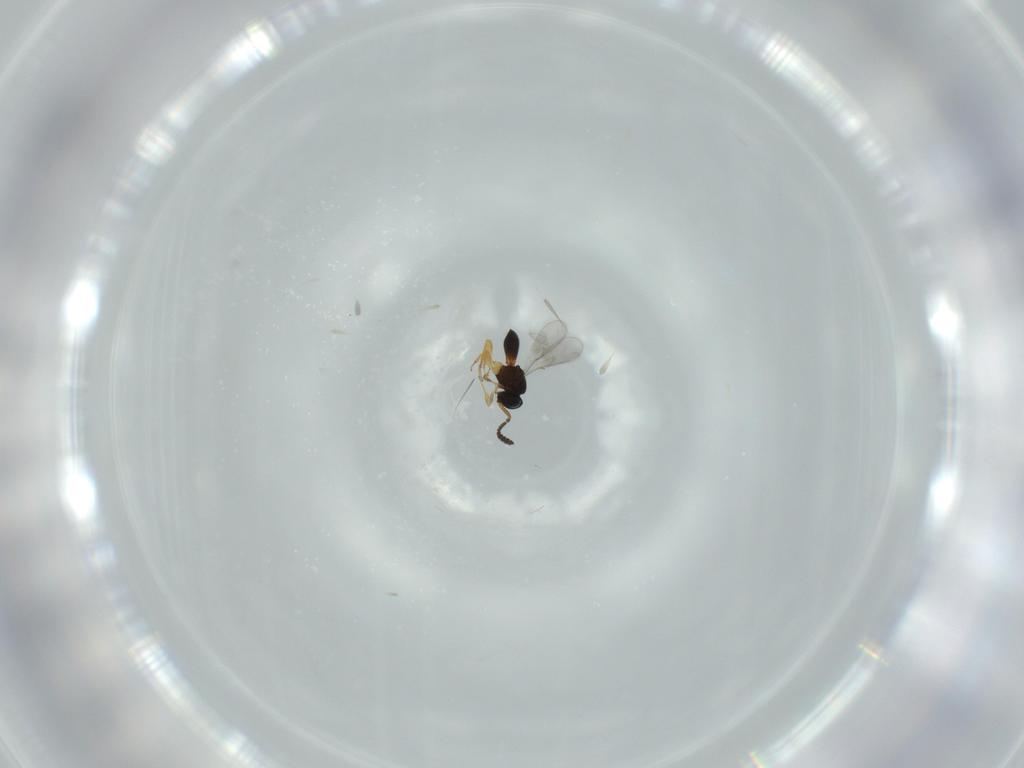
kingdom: Animalia
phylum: Arthropoda
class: Insecta
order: Hymenoptera
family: Scelionidae
